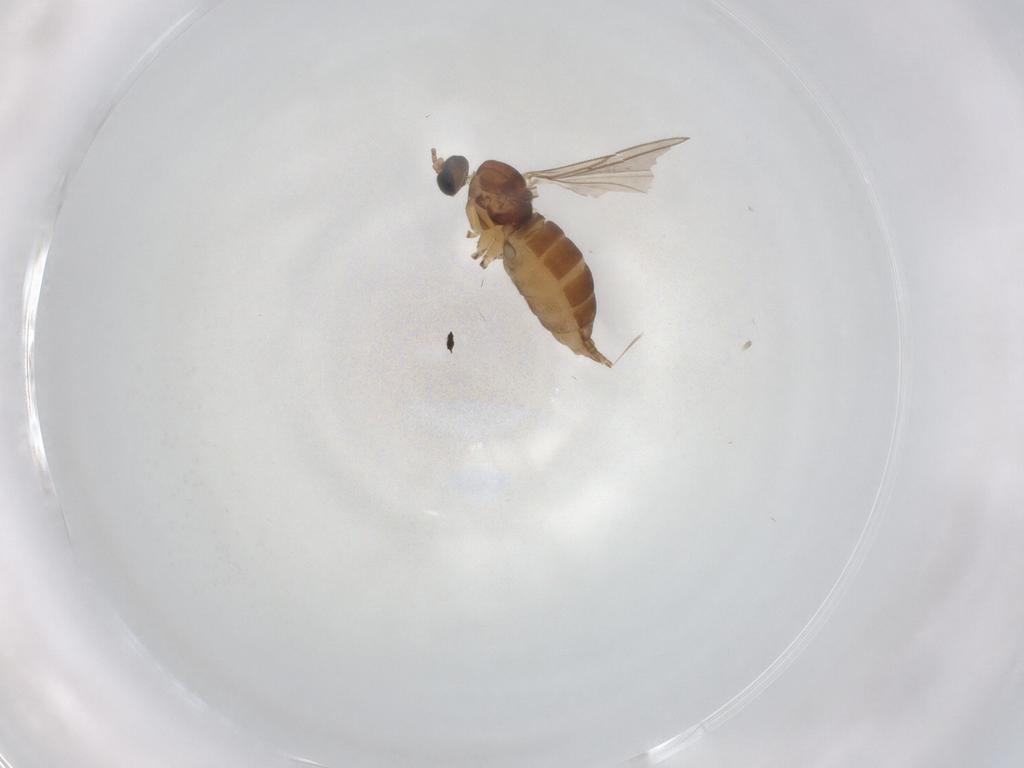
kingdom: Animalia
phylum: Arthropoda
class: Insecta
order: Diptera
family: Sciaridae
